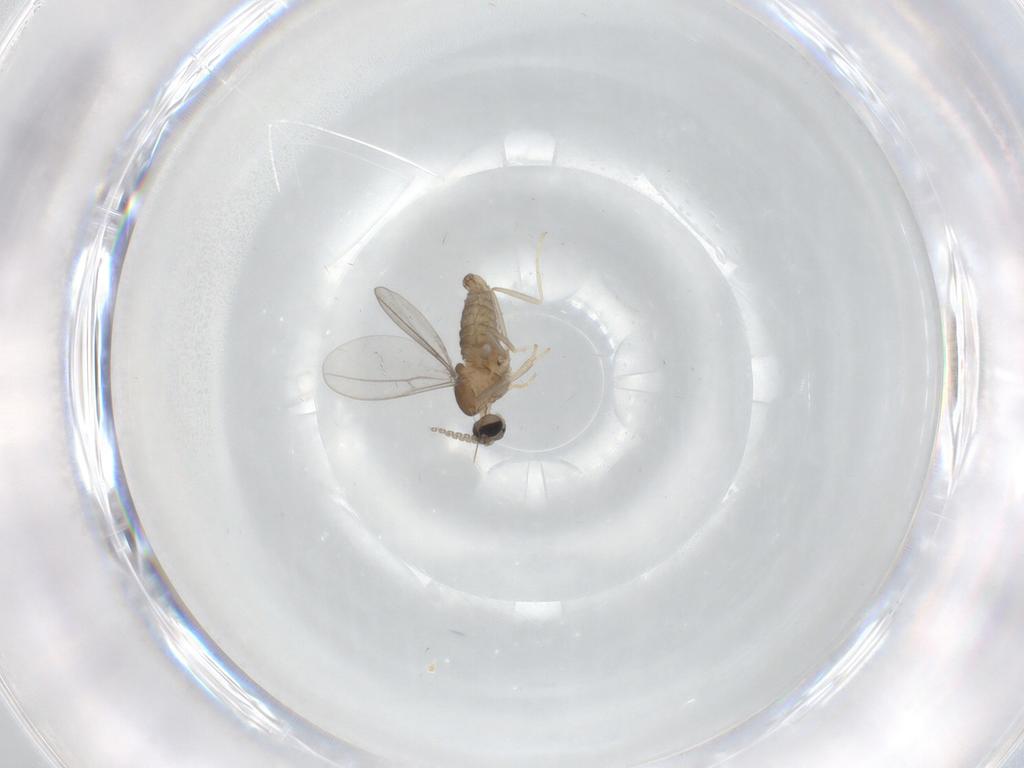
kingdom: Animalia
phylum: Arthropoda
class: Insecta
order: Diptera
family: Cecidomyiidae
